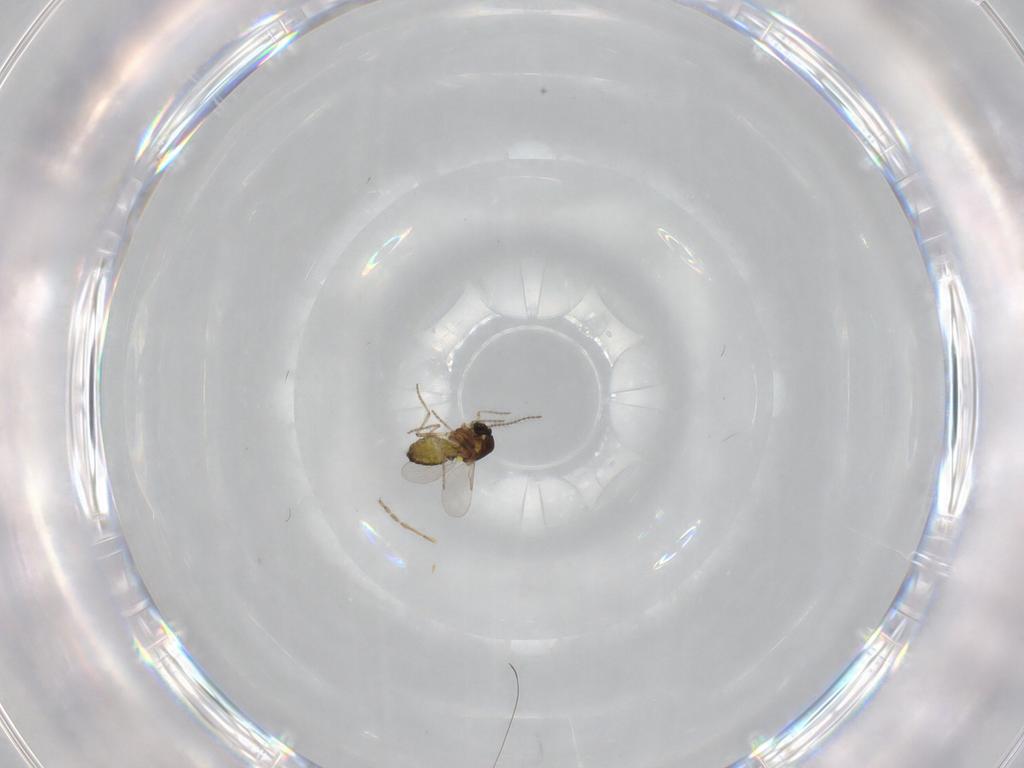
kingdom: Animalia
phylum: Arthropoda
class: Insecta
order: Diptera
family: Ceratopogonidae
